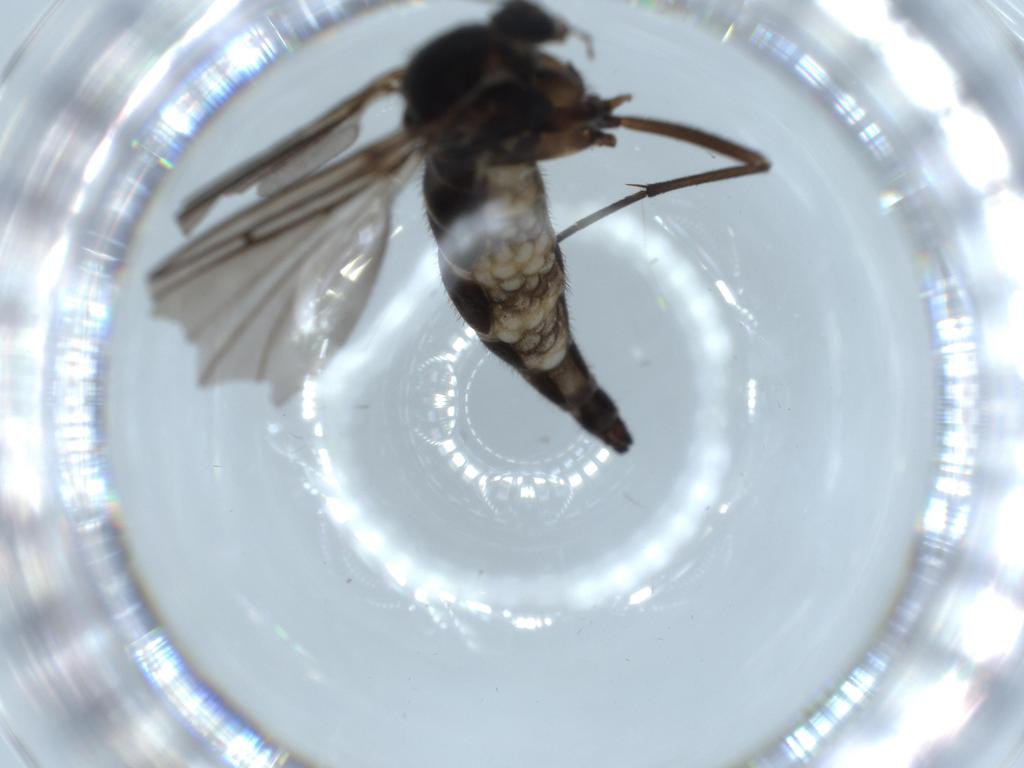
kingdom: Animalia
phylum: Arthropoda
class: Insecta
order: Diptera
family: Sciaridae
